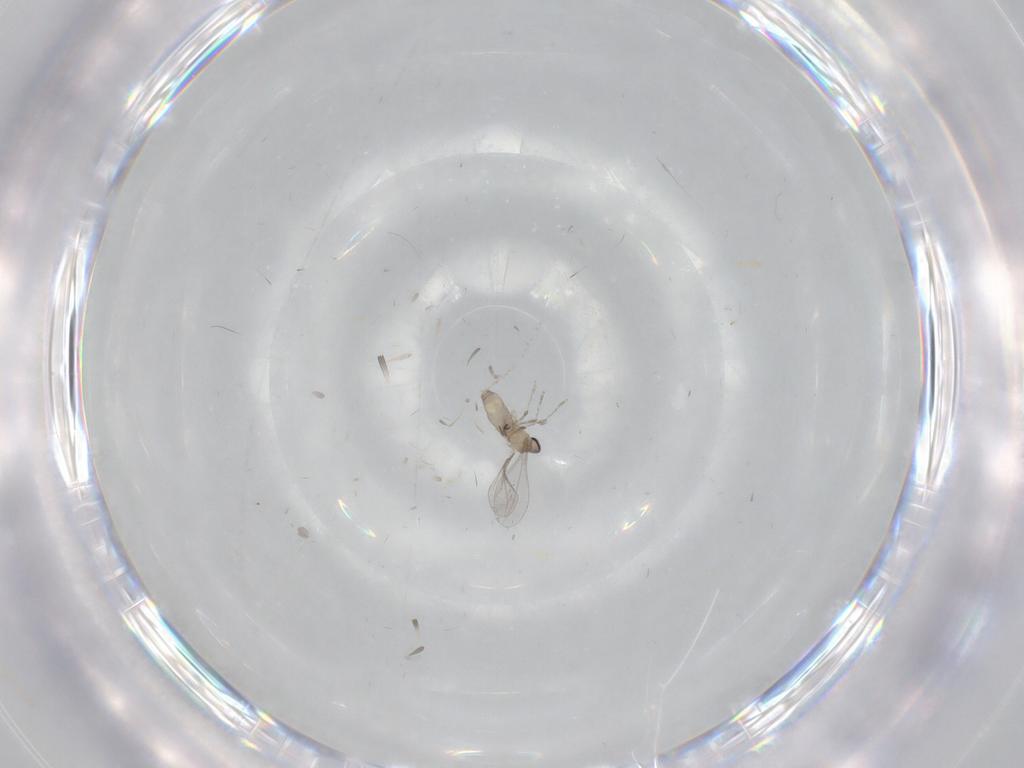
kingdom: Animalia
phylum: Arthropoda
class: Insecta
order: Diptera
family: Cecidomyiidae
